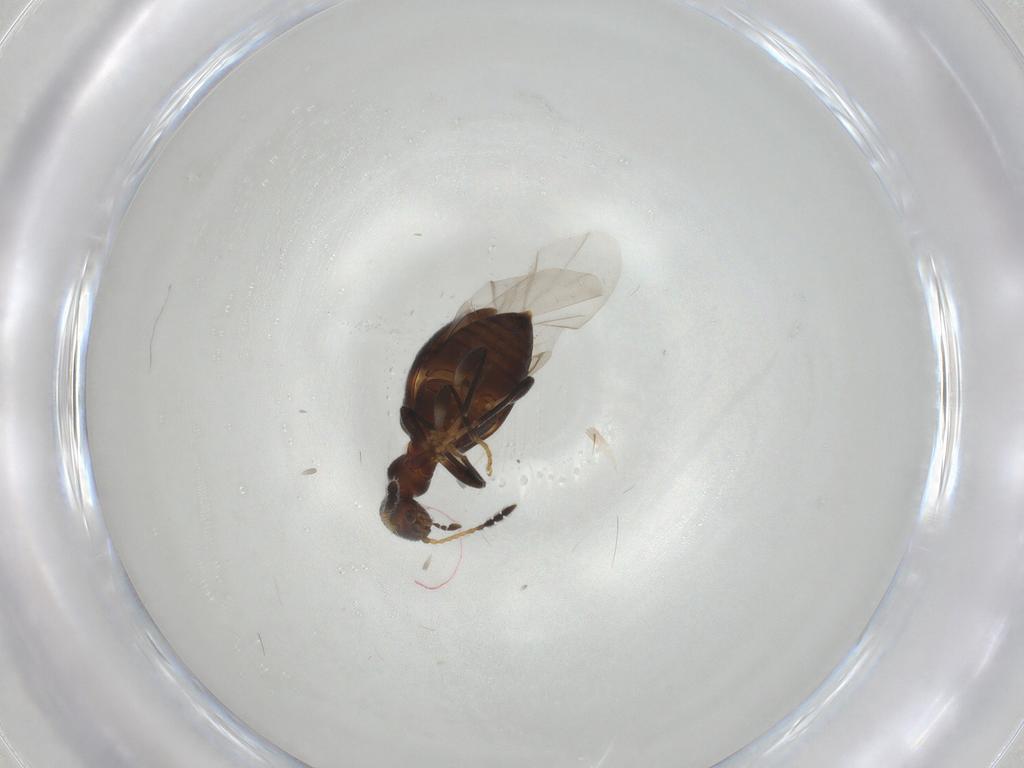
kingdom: Animalia
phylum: Arthropoda
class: Insecta
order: Coleoptera
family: Anthicidae
